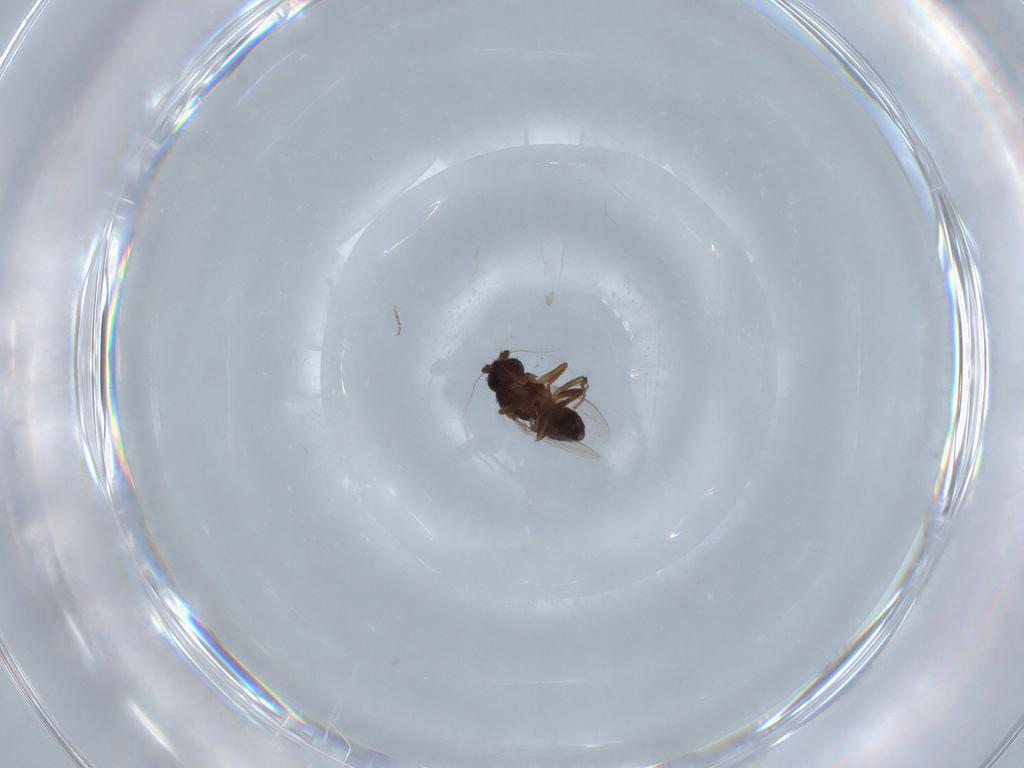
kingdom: Animalia
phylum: Arthropoda
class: Insecta
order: Diptera
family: Sphaeroceridae
